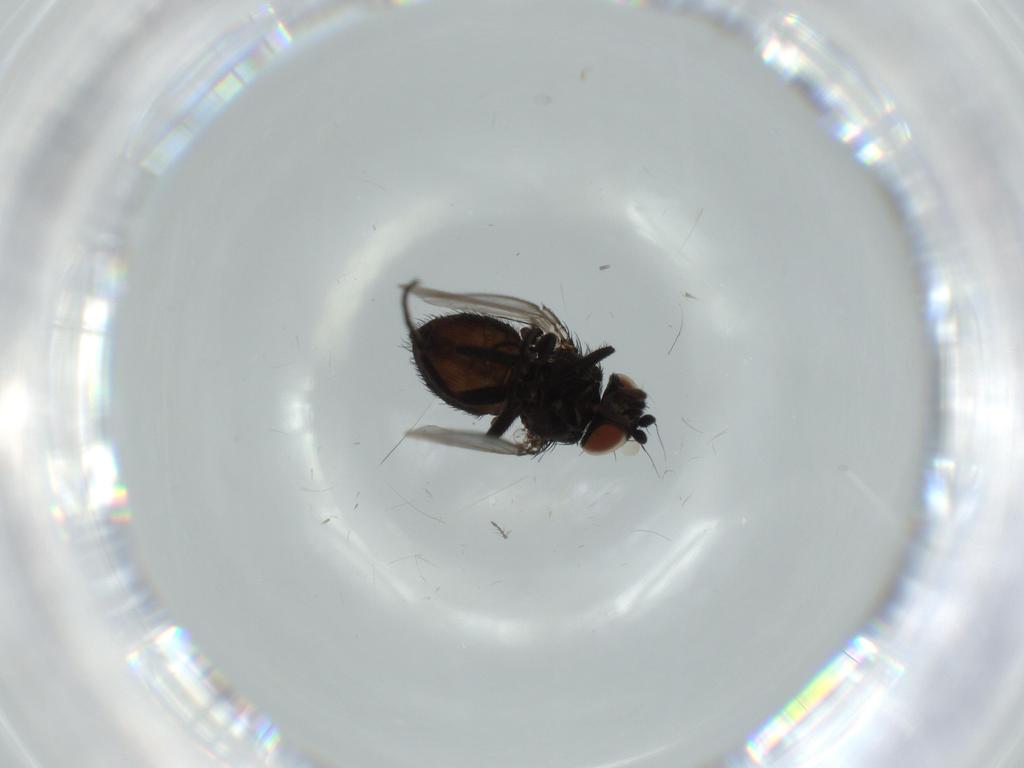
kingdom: Animalia
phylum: Arthropoda
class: Insecta
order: Diptera
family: Milichiidae
